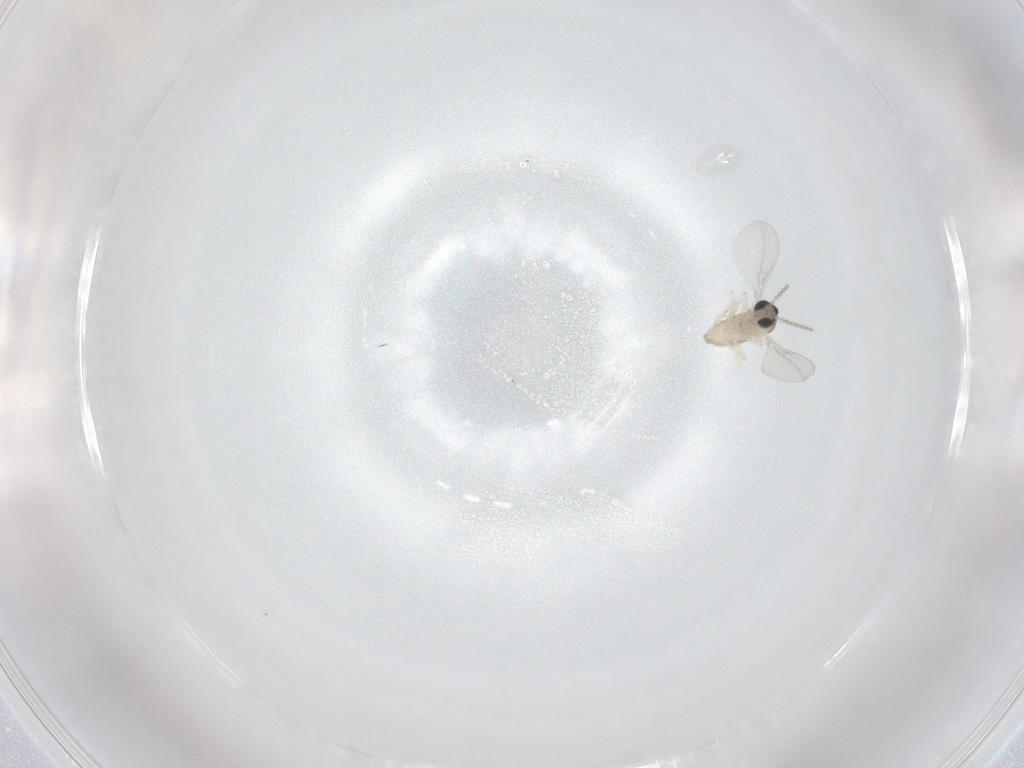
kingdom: Animalia
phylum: Arthropoda
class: Insecta
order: Diptera
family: Cecidomyiidae
